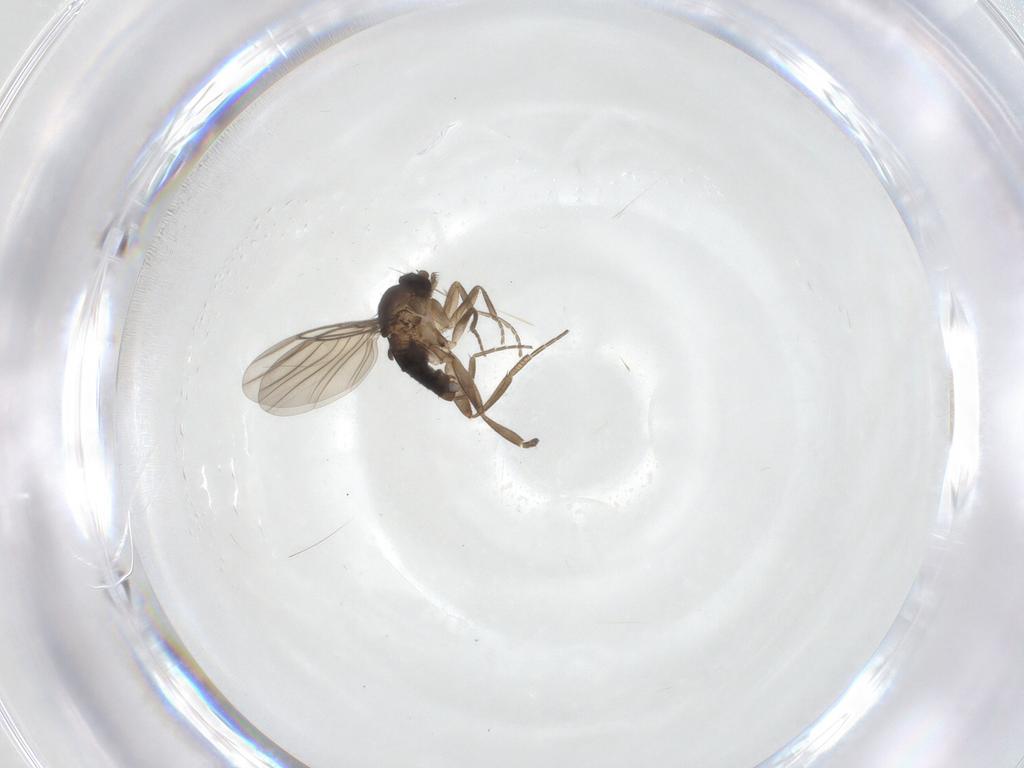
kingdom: Animalia
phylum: Arthropoda
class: Insecta
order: Diptera
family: Phoridae
